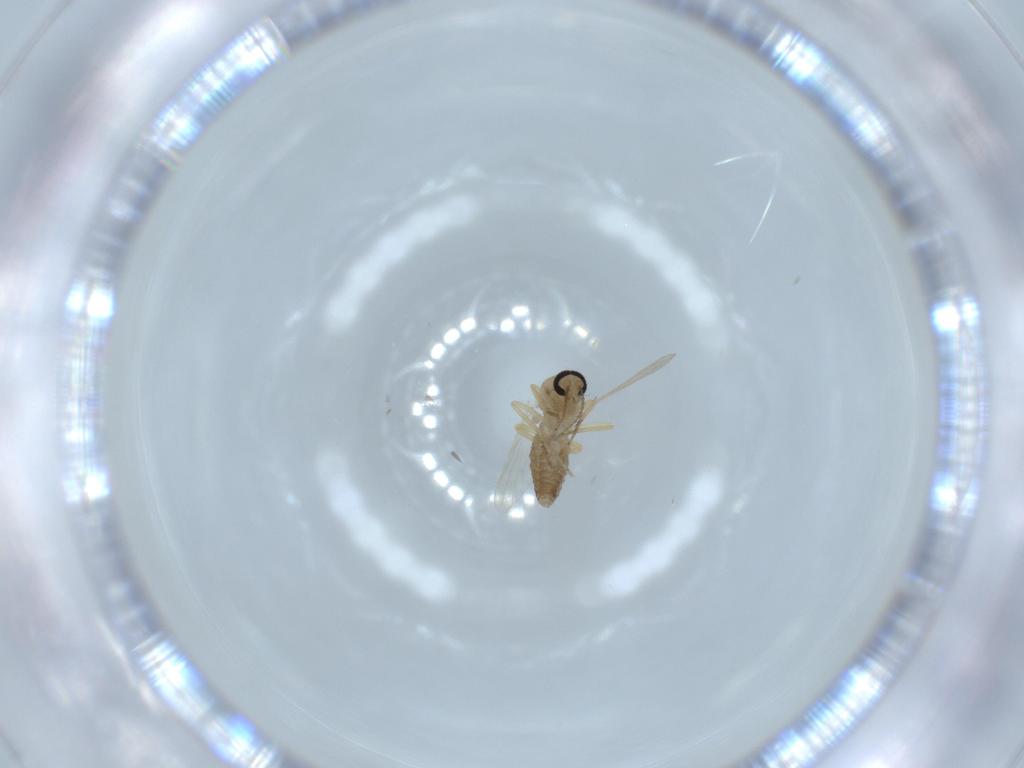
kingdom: Animalia
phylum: Arthropoda
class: Insecta
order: Diptera
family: Ceratopogonidae
